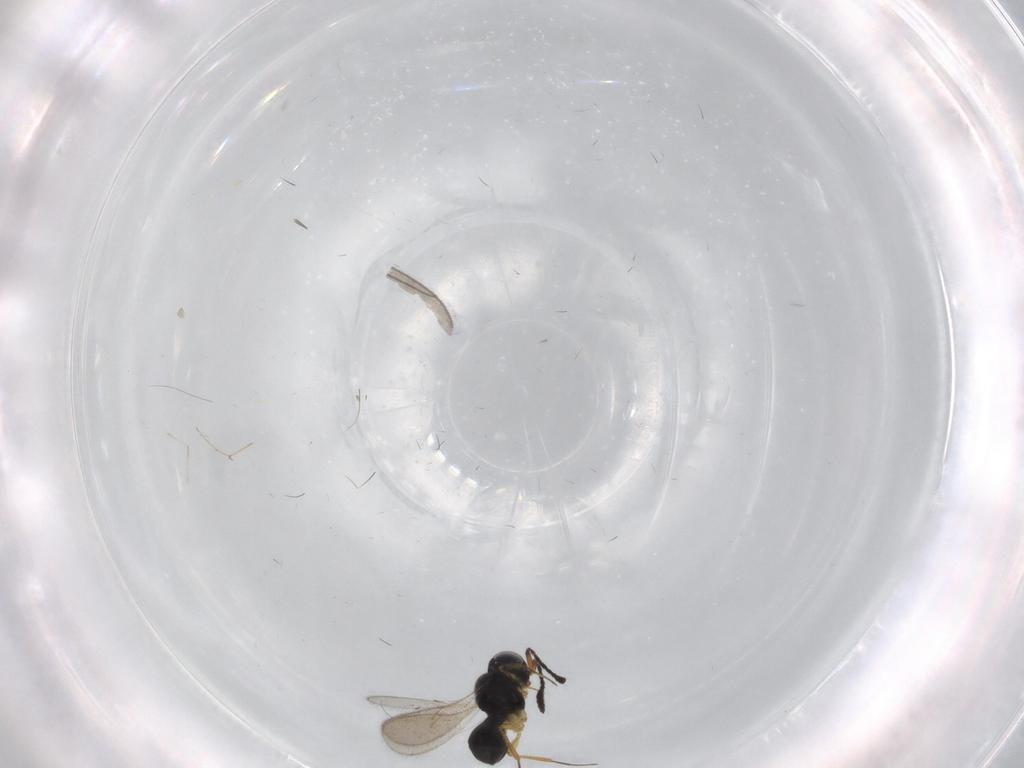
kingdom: Animalia
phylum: Arthropoda
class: Insecta
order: Hymenoptera
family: Scelionidae
